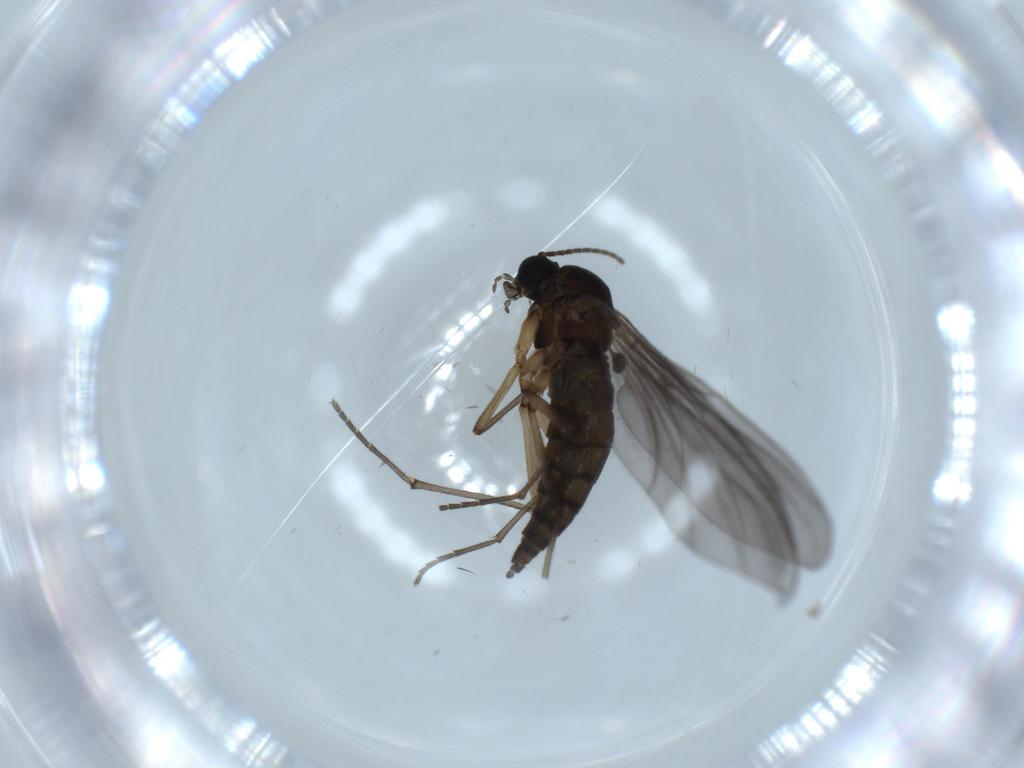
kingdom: Animalia
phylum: Arthropoda
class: Insecta
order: Diptera
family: Sciaridae
